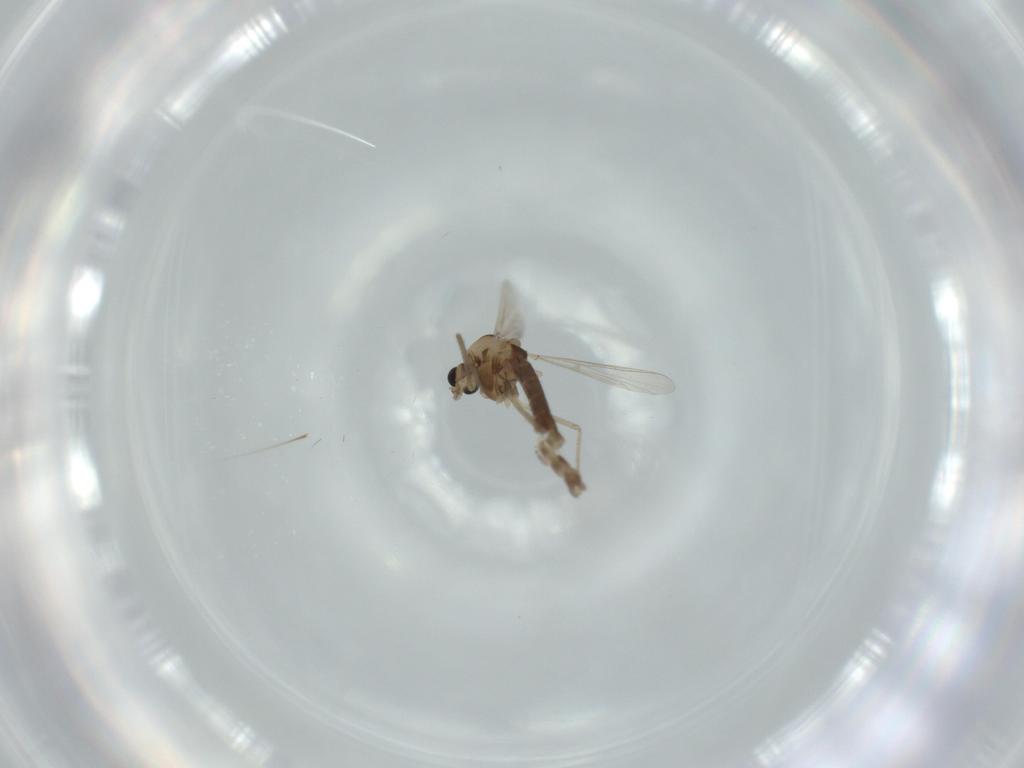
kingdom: Animalia
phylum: Arthropoda
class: Insecta
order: Diptera
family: Chironomidae
